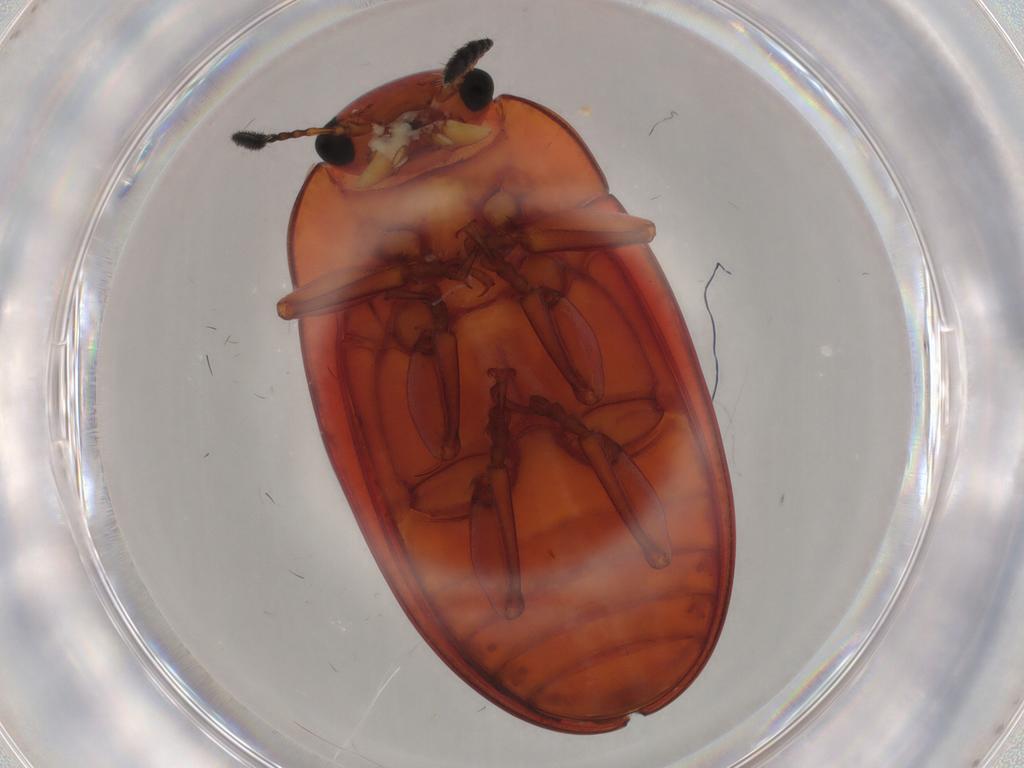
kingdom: Animalia
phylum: Arthropoda
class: Insecta
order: Coleoptera
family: Erotylidae
